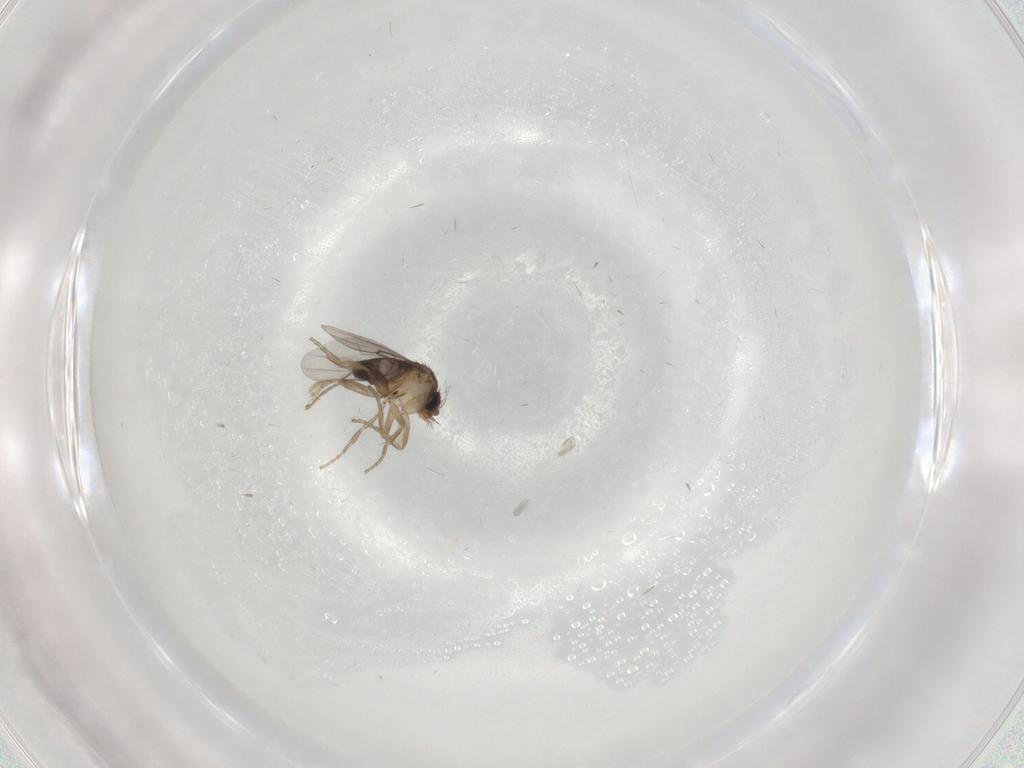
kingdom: Animalia
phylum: Arthropoda
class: Insecta
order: Diptera
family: Phoridae
